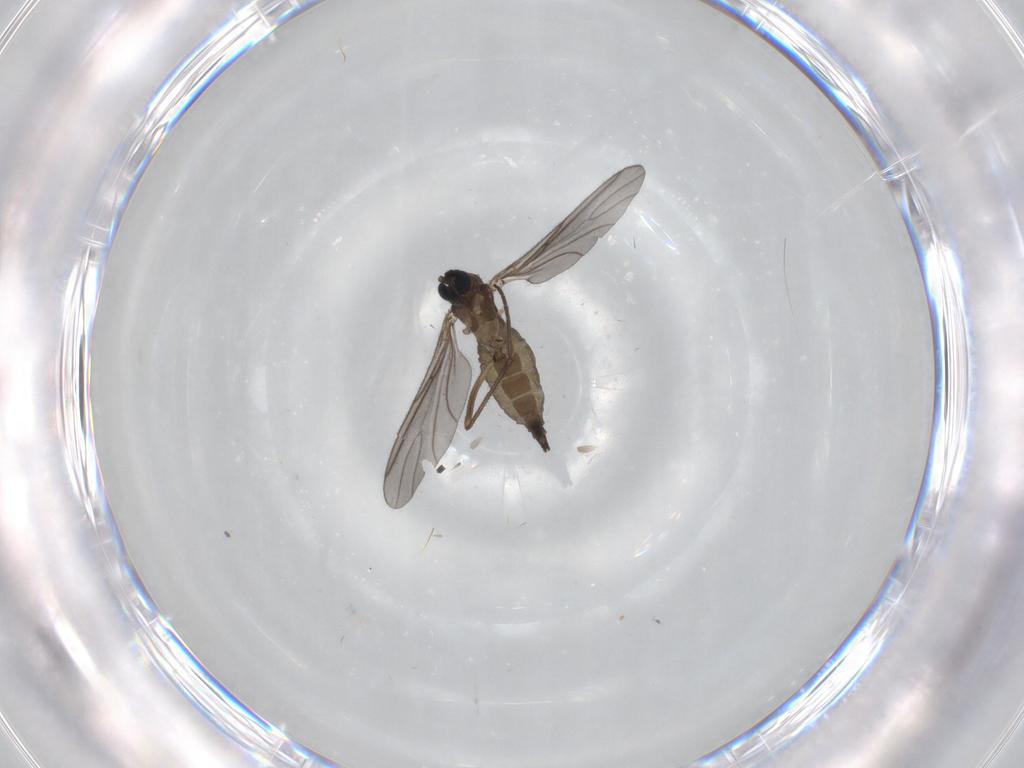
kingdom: Animalia
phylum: Arthropoda
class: Insecta
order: Diptera
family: Sciaridae
